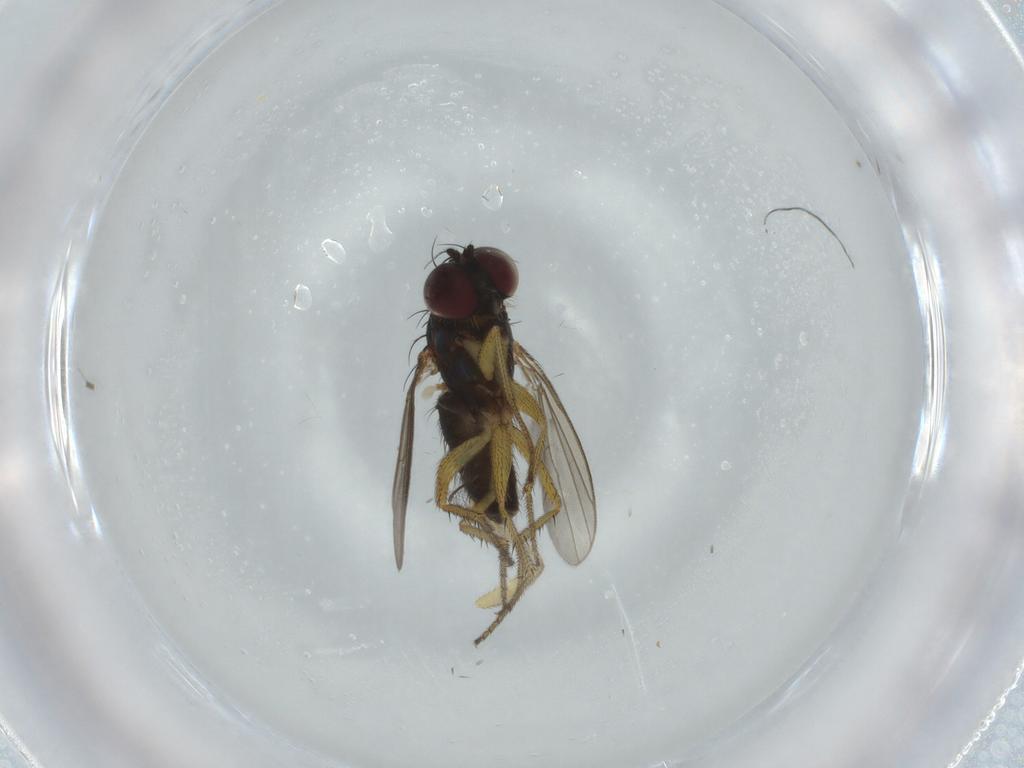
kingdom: Animalia
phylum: Arthropoda
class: Insecta
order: Diptera
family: Dolichopodidae
